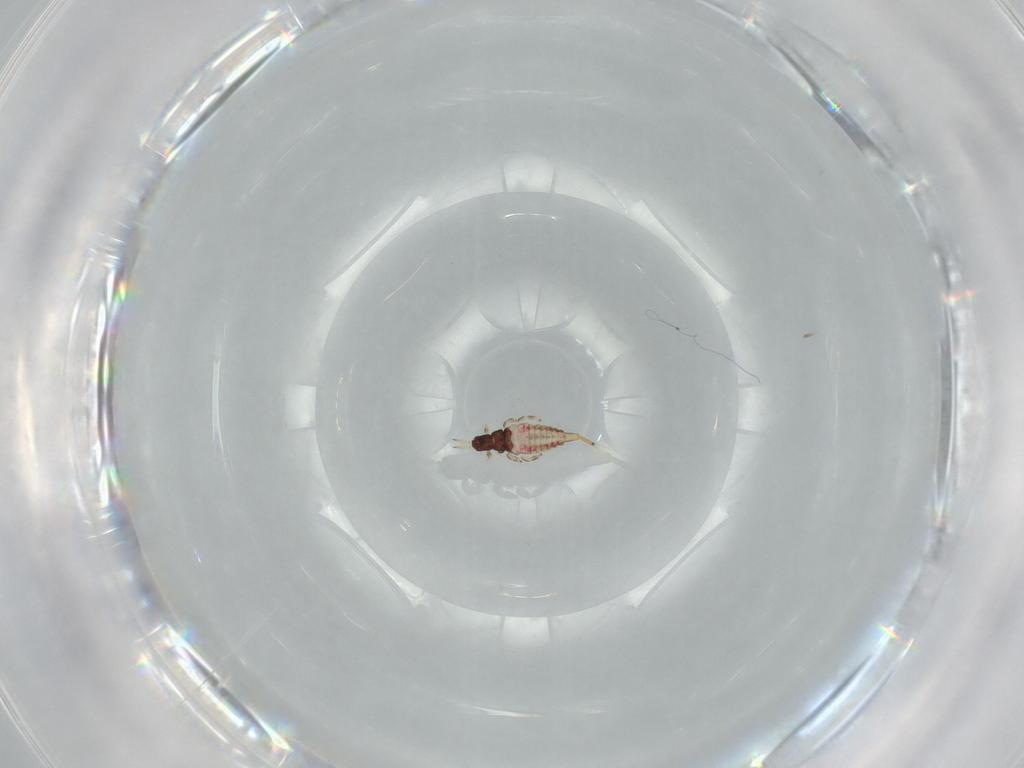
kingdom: Animalia
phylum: Arthropoda
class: Insecta
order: Thysanoptera
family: Phlaeothripidae
